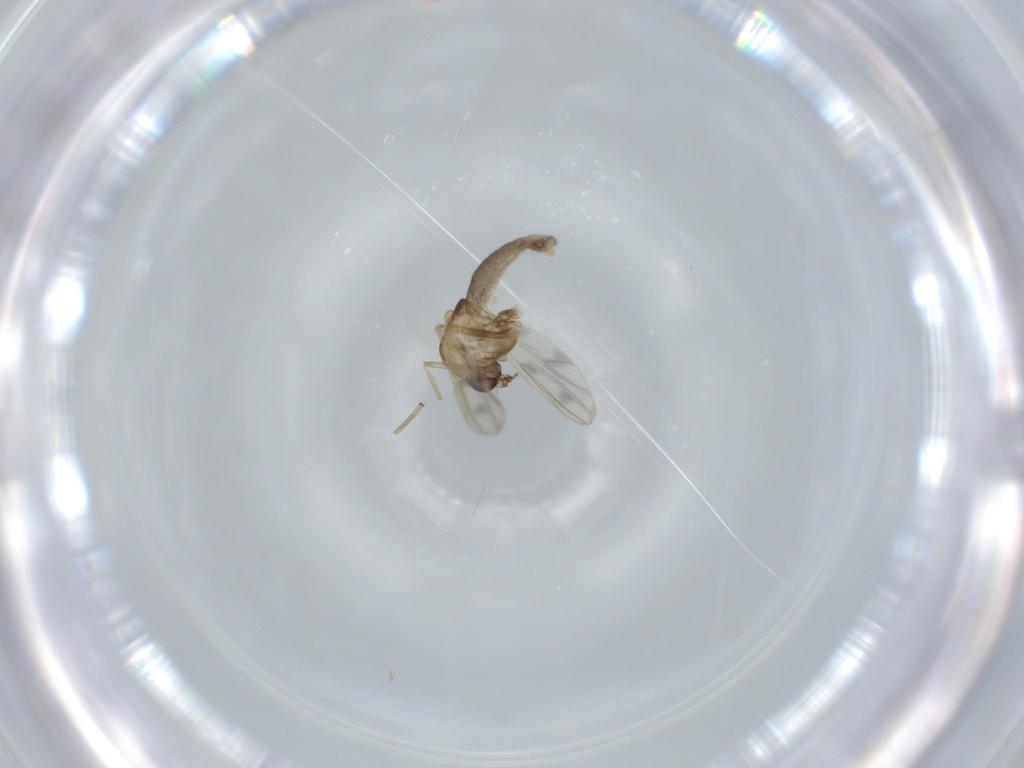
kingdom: Animalia
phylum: Arthropoda
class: Insecta
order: Diptera
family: Chironomidae
